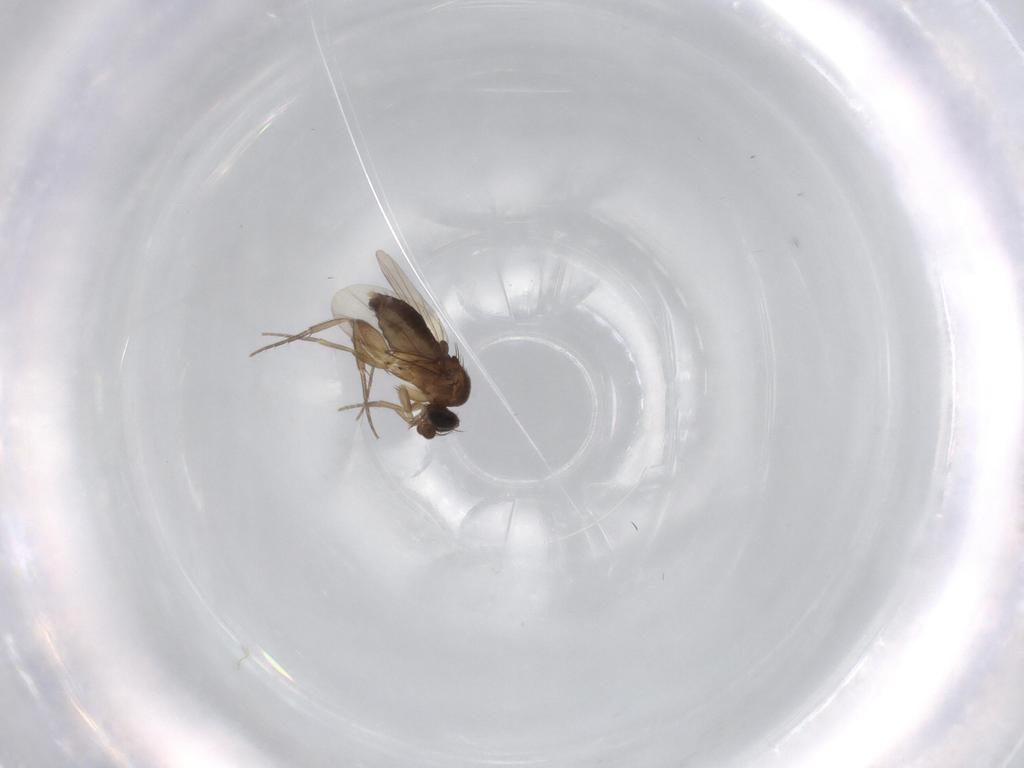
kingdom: Animalia
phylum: Arthropoda
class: Insecta
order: Diptera
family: Phoridae
